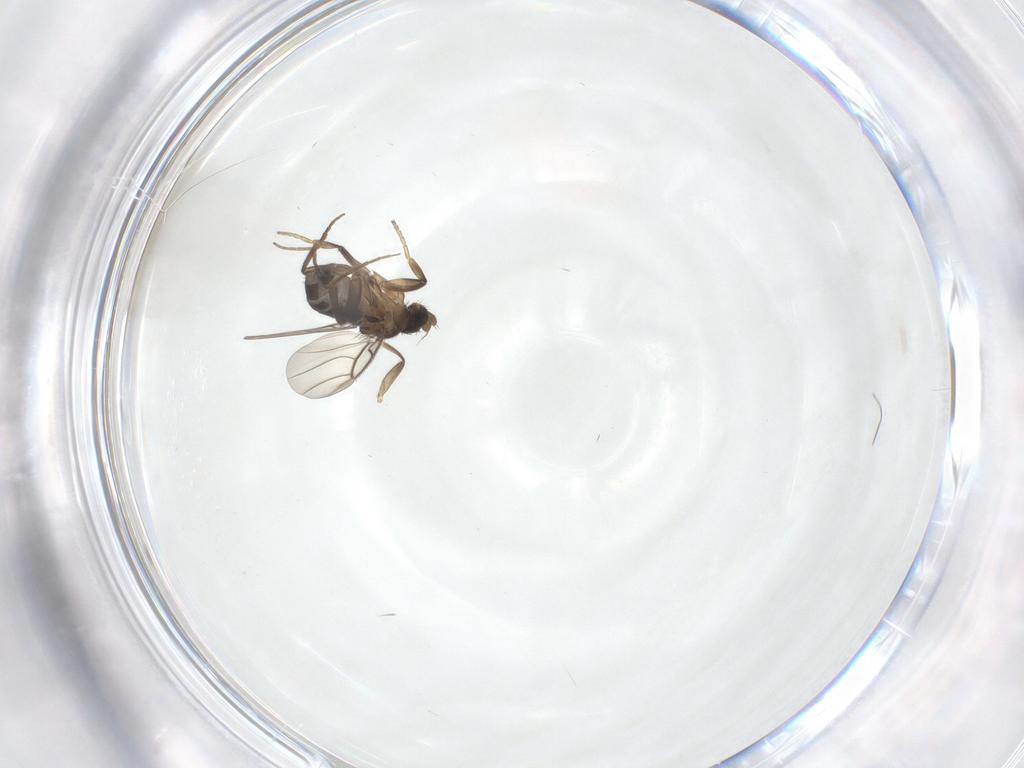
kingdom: Animalia
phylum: Arthropoda
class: Insecta
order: Diptera
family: Phoridae
